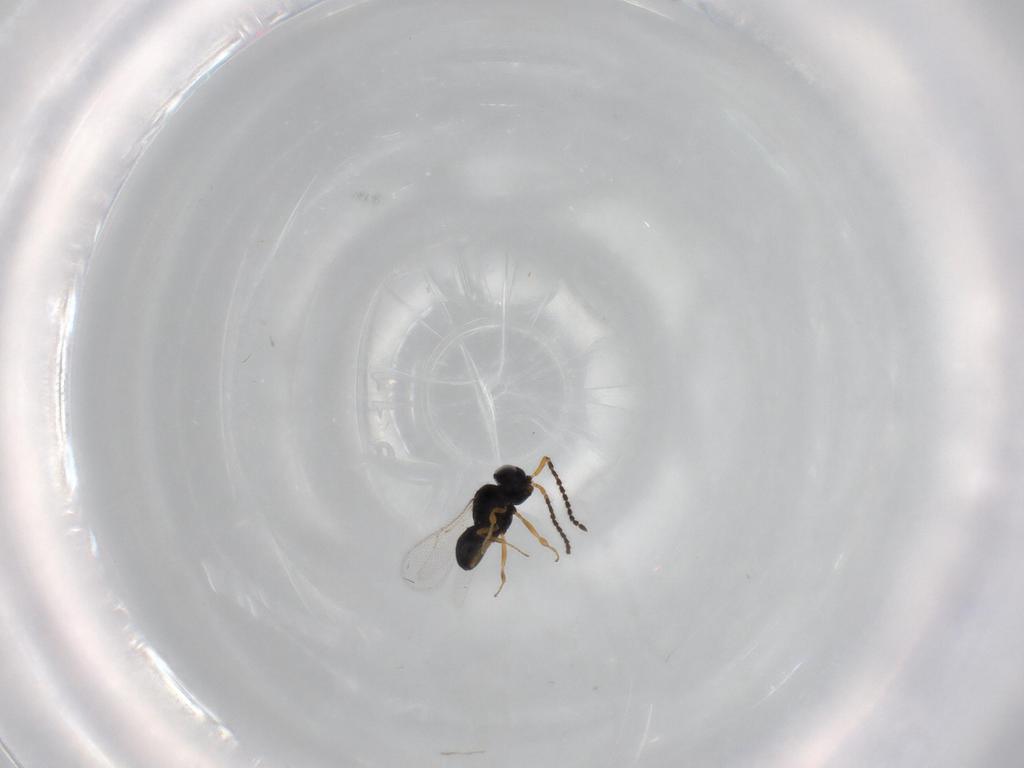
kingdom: Animalia
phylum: Arthropoda
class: Insecta
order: Hymenoptera
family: Scelionidae
